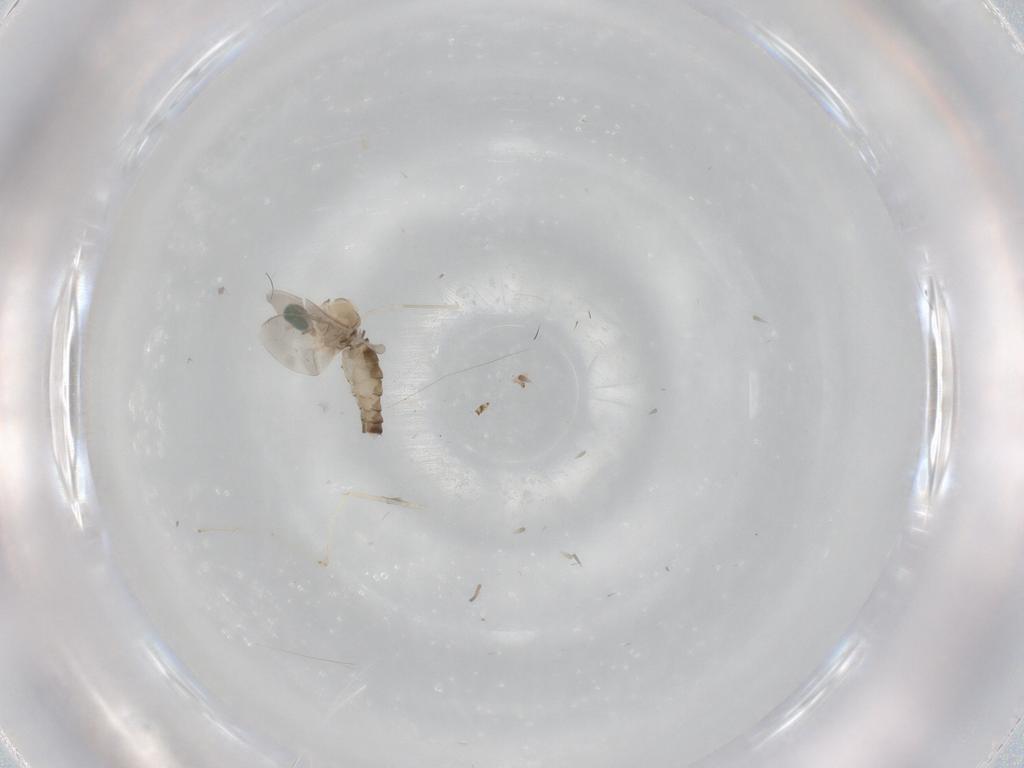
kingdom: Animalia
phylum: Arthropoda
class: Insecta
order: Diptera
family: Cecidomyiidae
